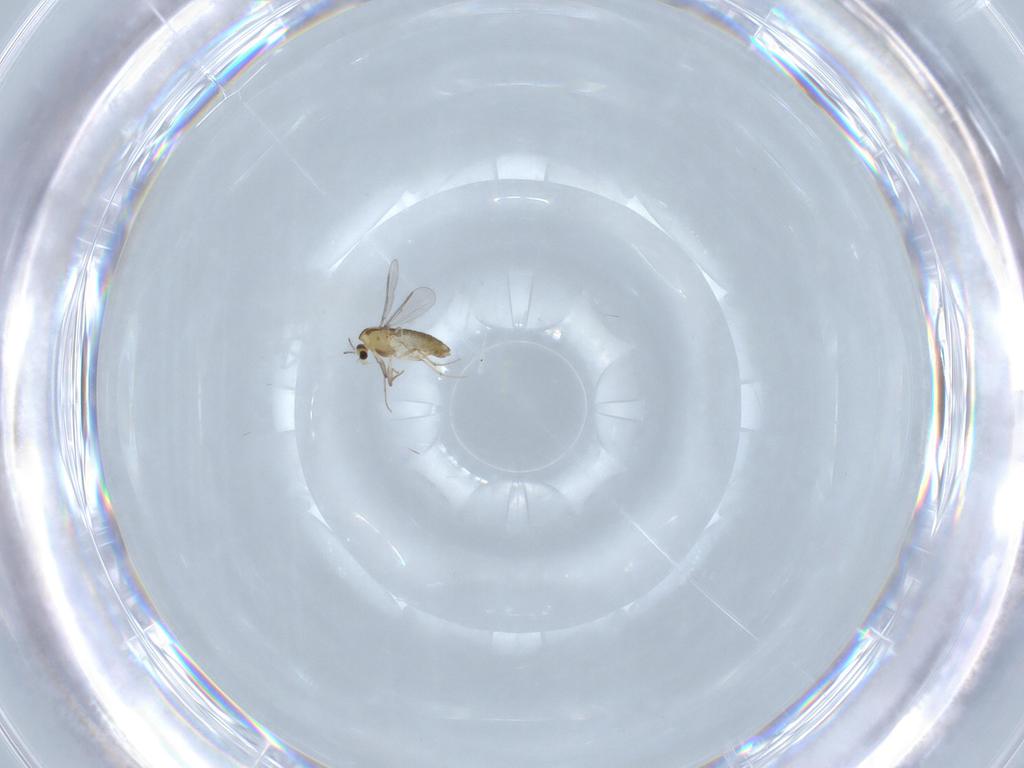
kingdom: Animalia
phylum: Arthropoda
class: Insecta
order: Diptera
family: Chironomidae
